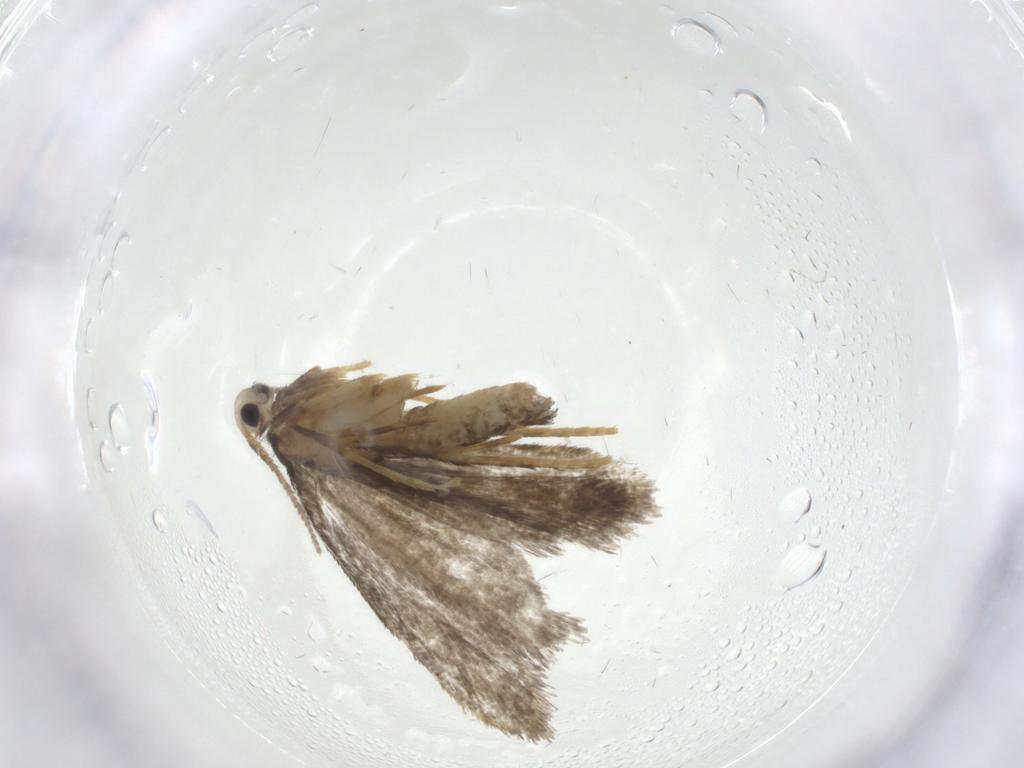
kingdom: Animalia
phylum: Arthropoda
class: Insecta
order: Lepidoptera
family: Psychidae
